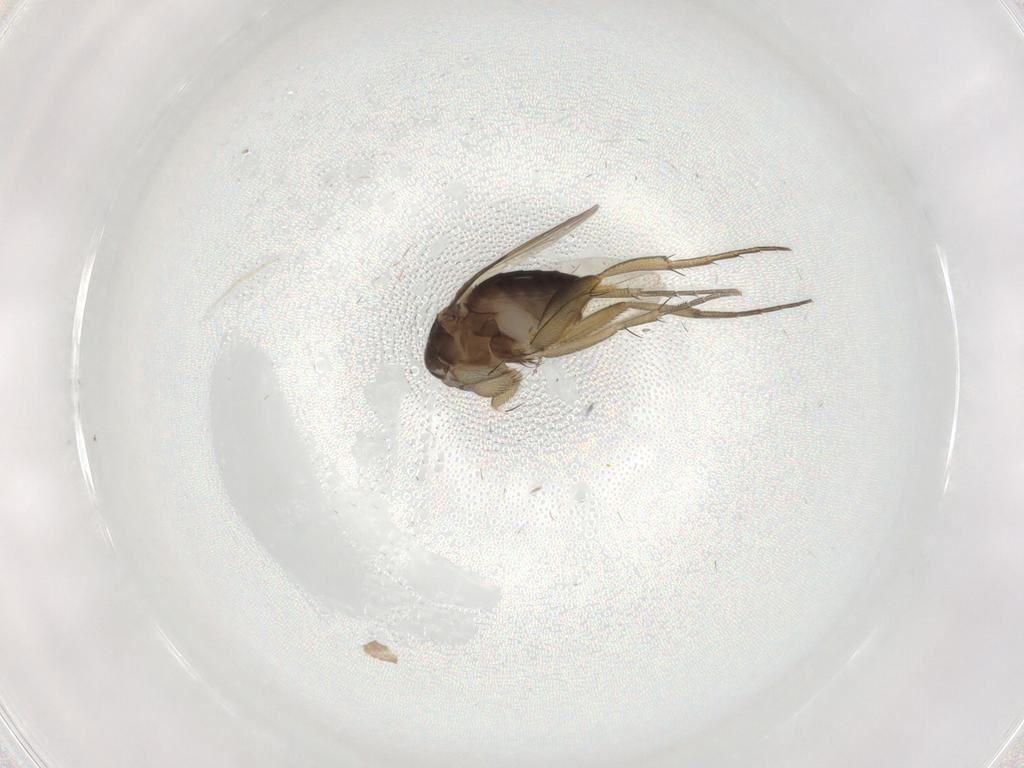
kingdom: Animalia
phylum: Arthropoda
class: Insecta
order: Diptera
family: Phoridae
